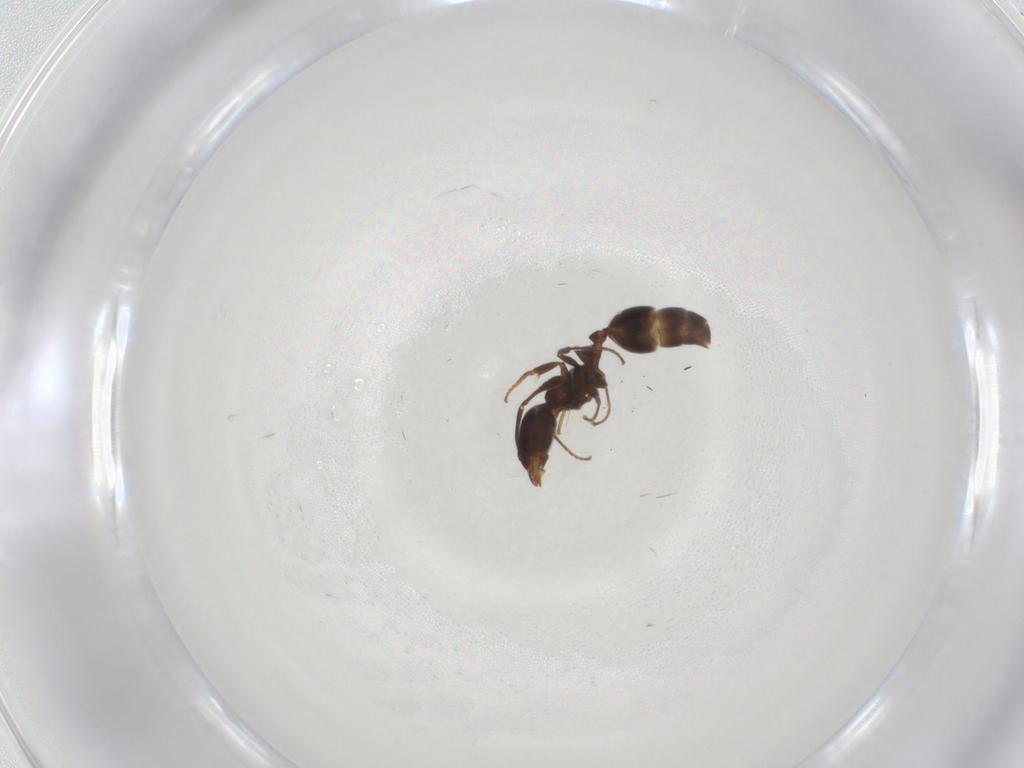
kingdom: Animalia
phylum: Arthropoda
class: Insecta
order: Hymenoptera
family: Formicidae
